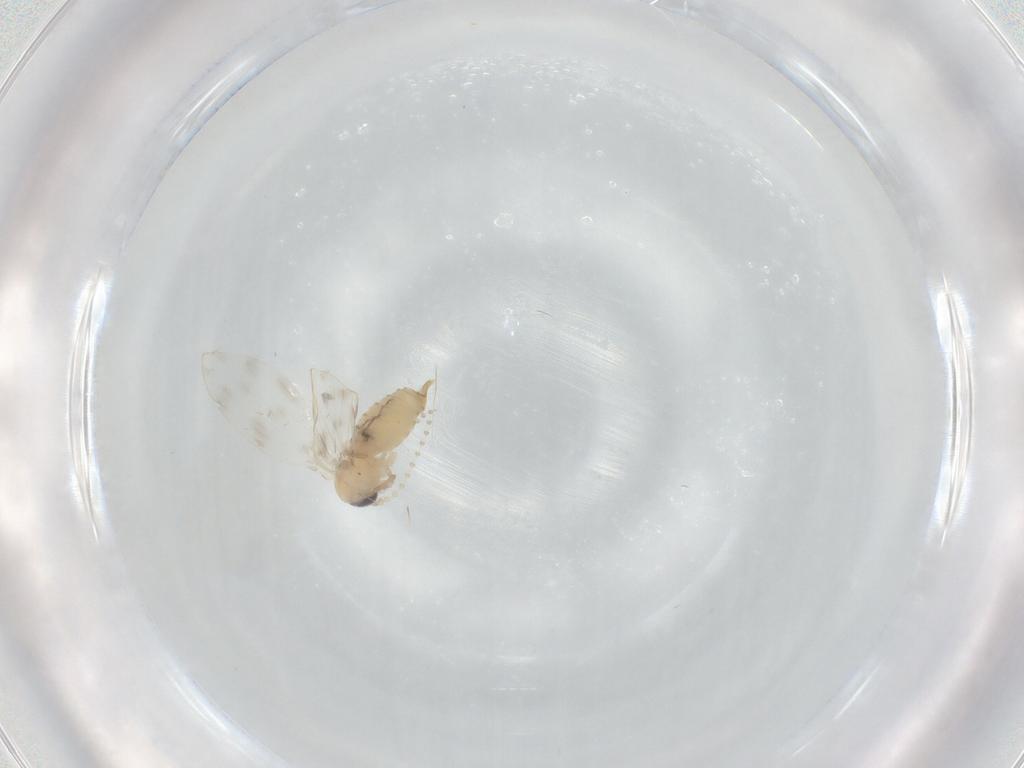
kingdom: Animalia
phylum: Arthropoda
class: Insecta
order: Diptera
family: Psychodidae
